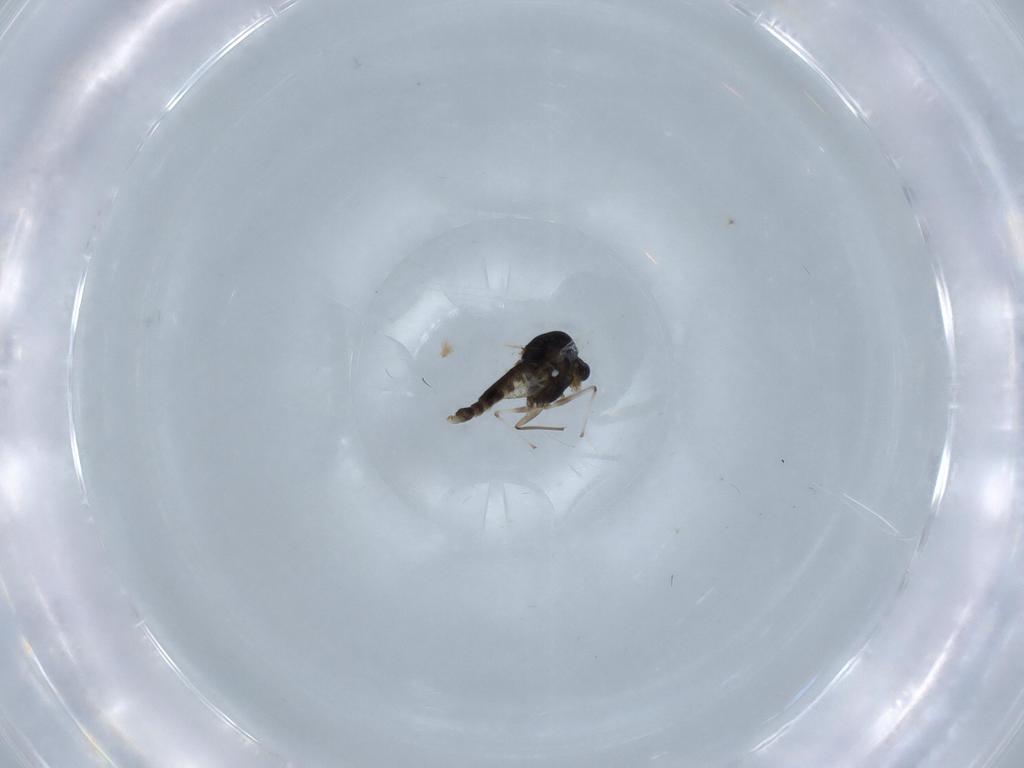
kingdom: Animalia
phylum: Arthropoda
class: Insecta
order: Diptera
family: Chironomidae
